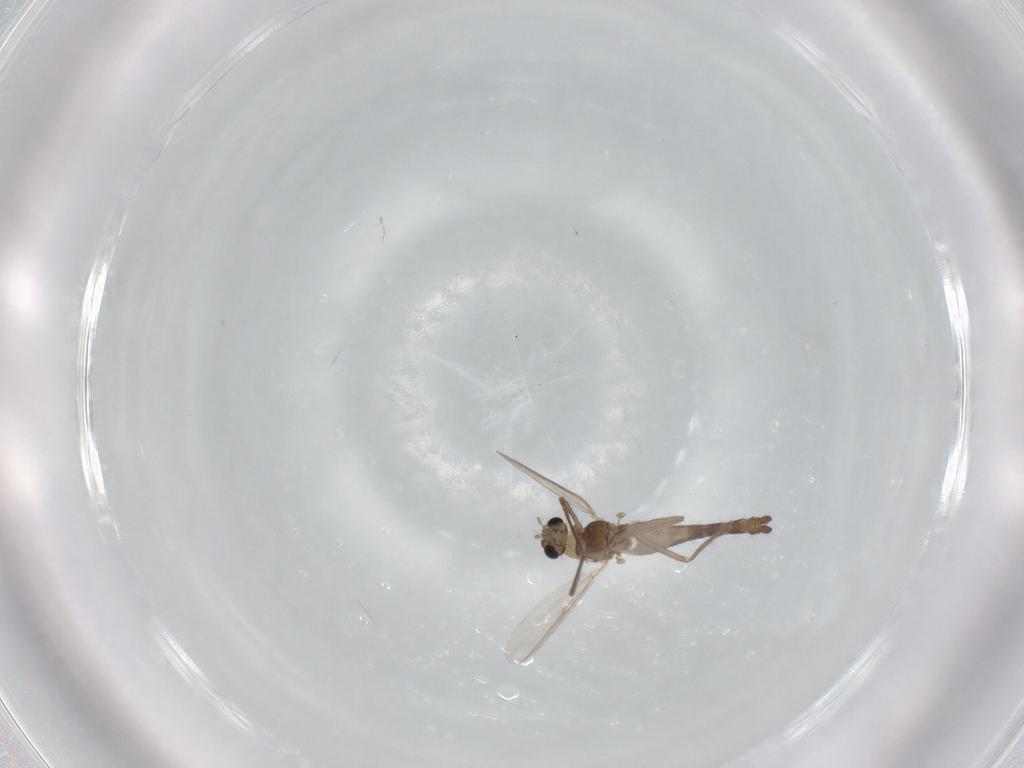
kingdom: Animalia
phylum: Arthropoda
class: Insecta
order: Diptera
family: Chironomidae
